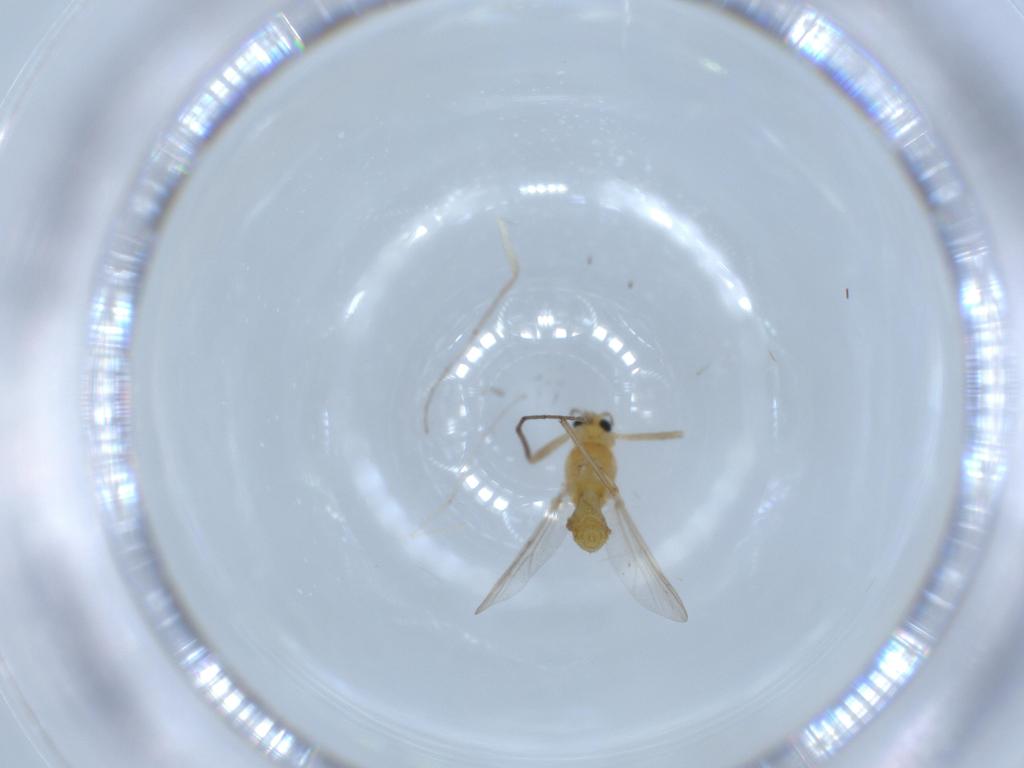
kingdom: Animalia
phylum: Arthropoda
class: Insecta
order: Diptera
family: Chironomidae
